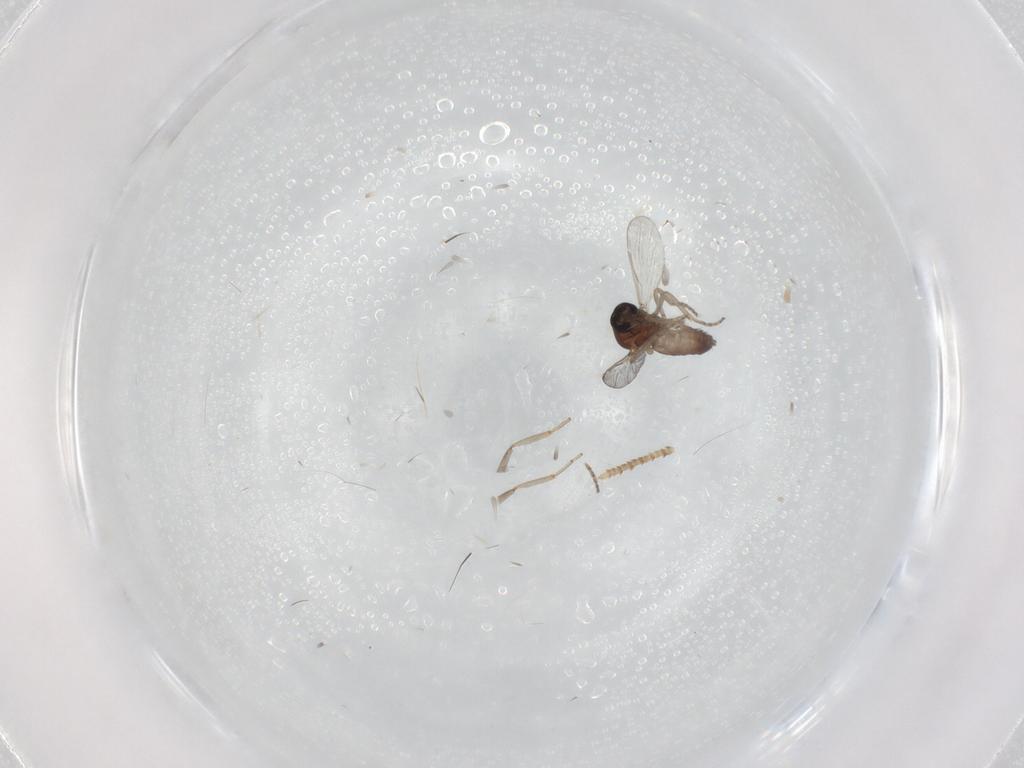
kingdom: Animalia
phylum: Arthropoda
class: Insecta
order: Diptera
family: Ceratopogonidae
